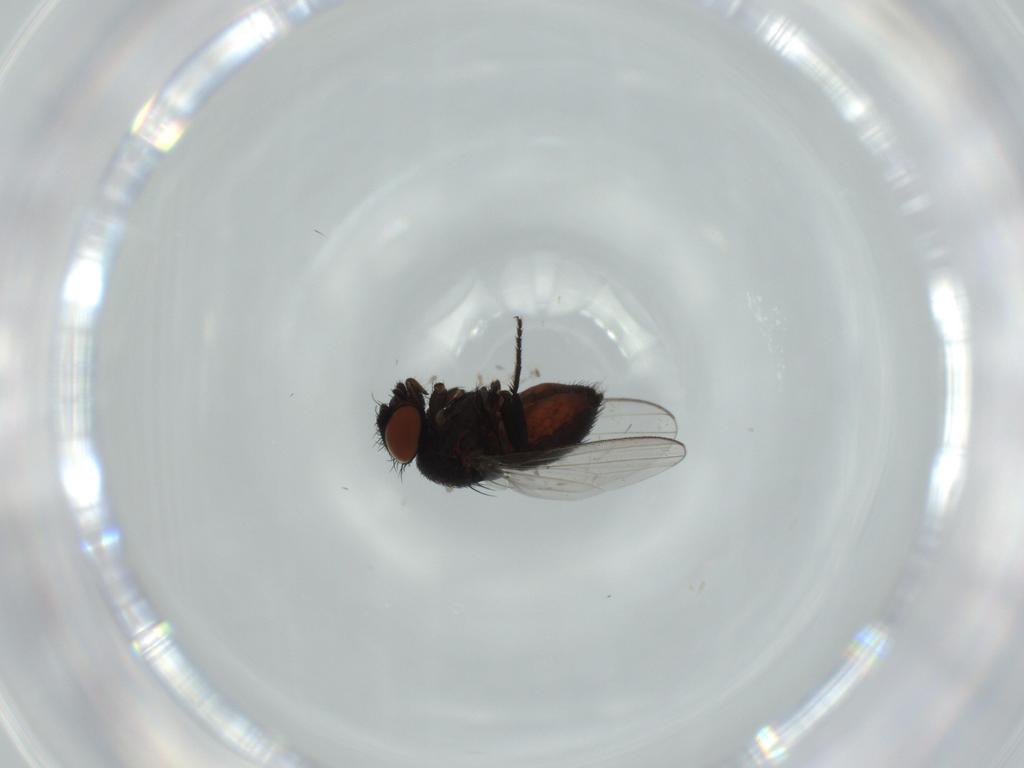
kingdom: Animalia
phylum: Arthropoda
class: Insecta
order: Diptera
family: Milichiidae
